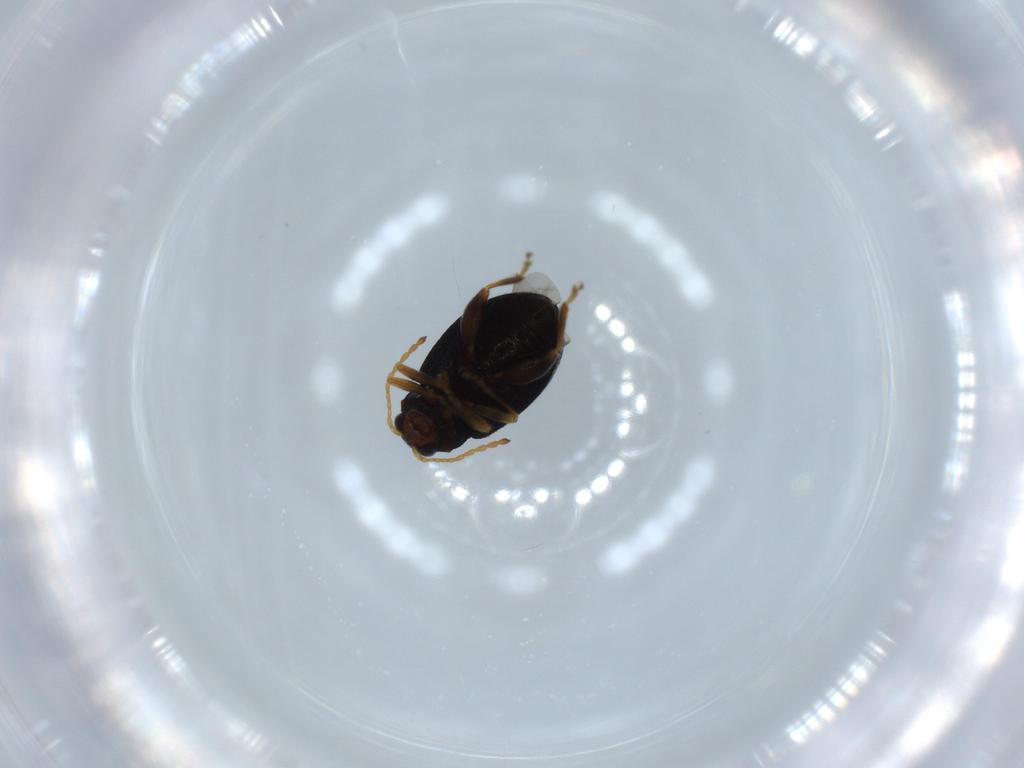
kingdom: Animalia
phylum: Arthropoda
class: Insecta
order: Coleoptera
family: Chrysomelidae
